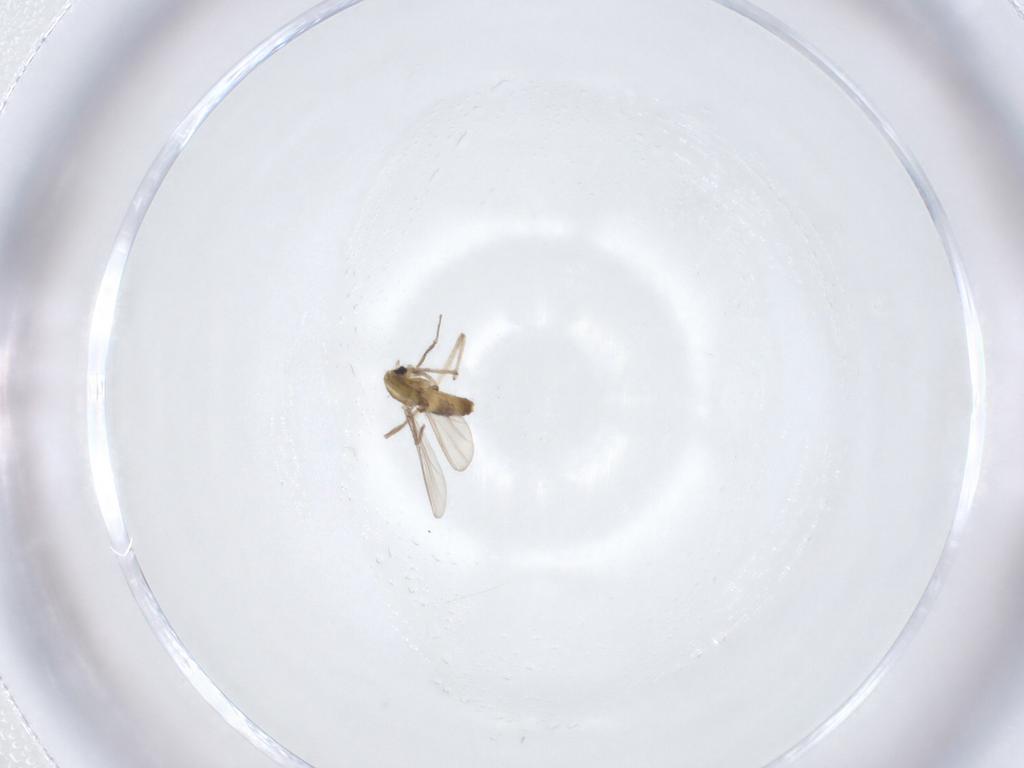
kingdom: Animalia
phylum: Arthropoda
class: Insecta
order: Diptera
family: Chironomidae
